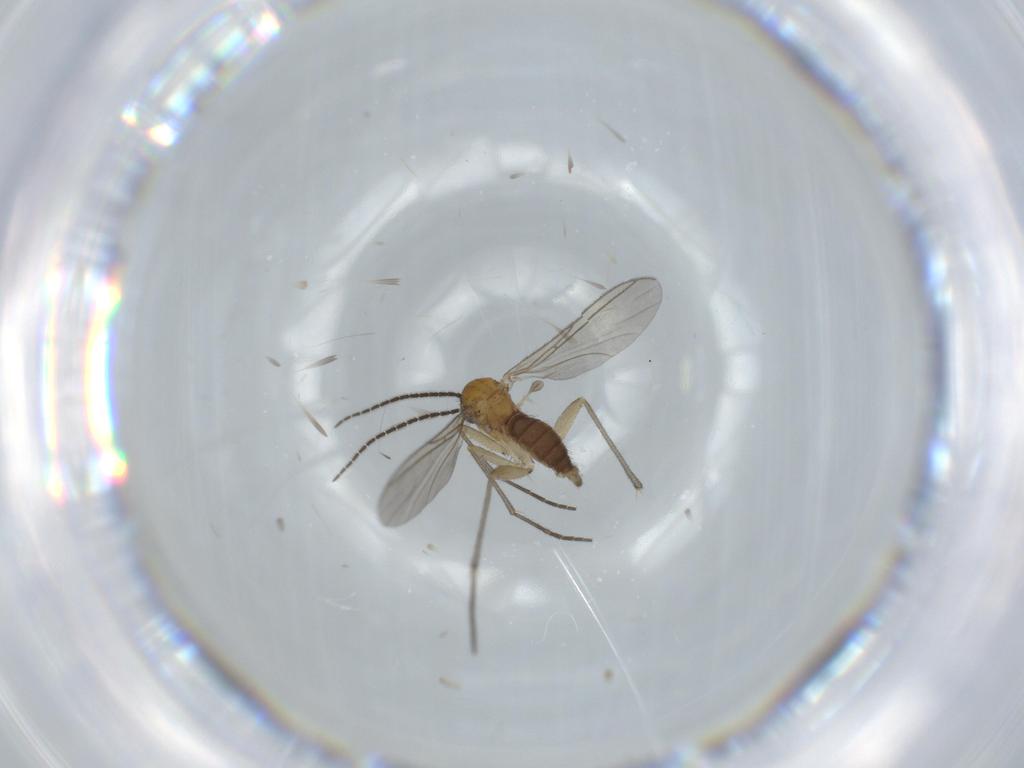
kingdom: Animalia
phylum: Arthropoda
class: Insecta
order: Diptera
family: Sciaridae
